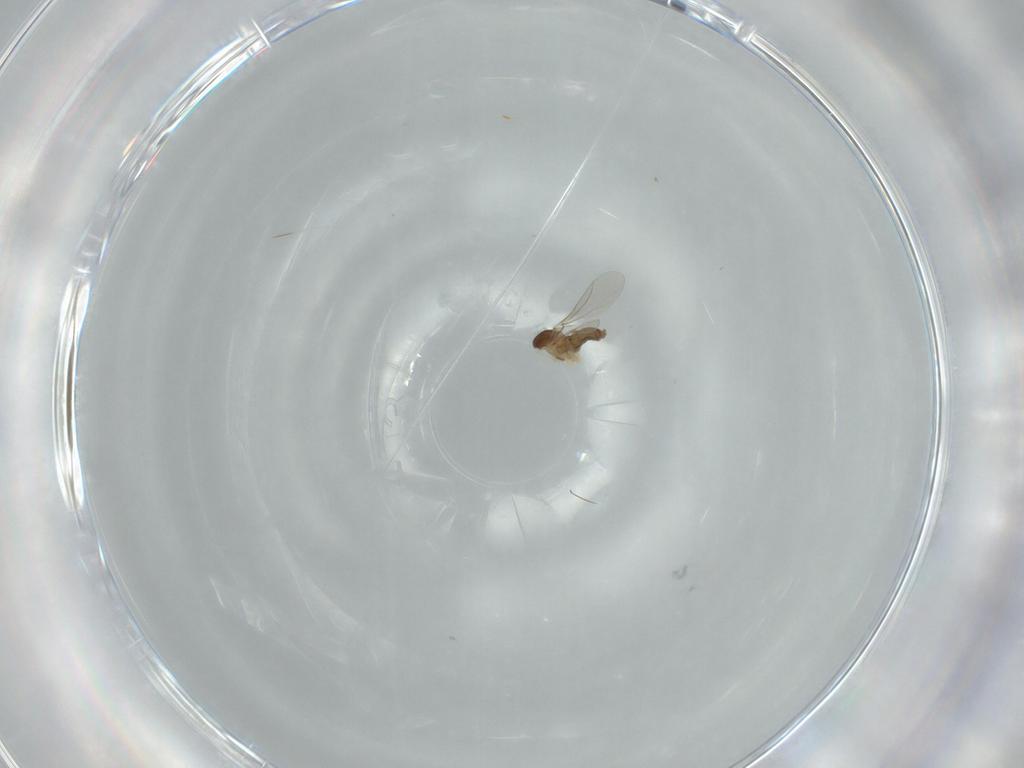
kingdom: Animalia
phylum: Arthropoda
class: Insecta
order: Diptera
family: Cecidomyiidae
